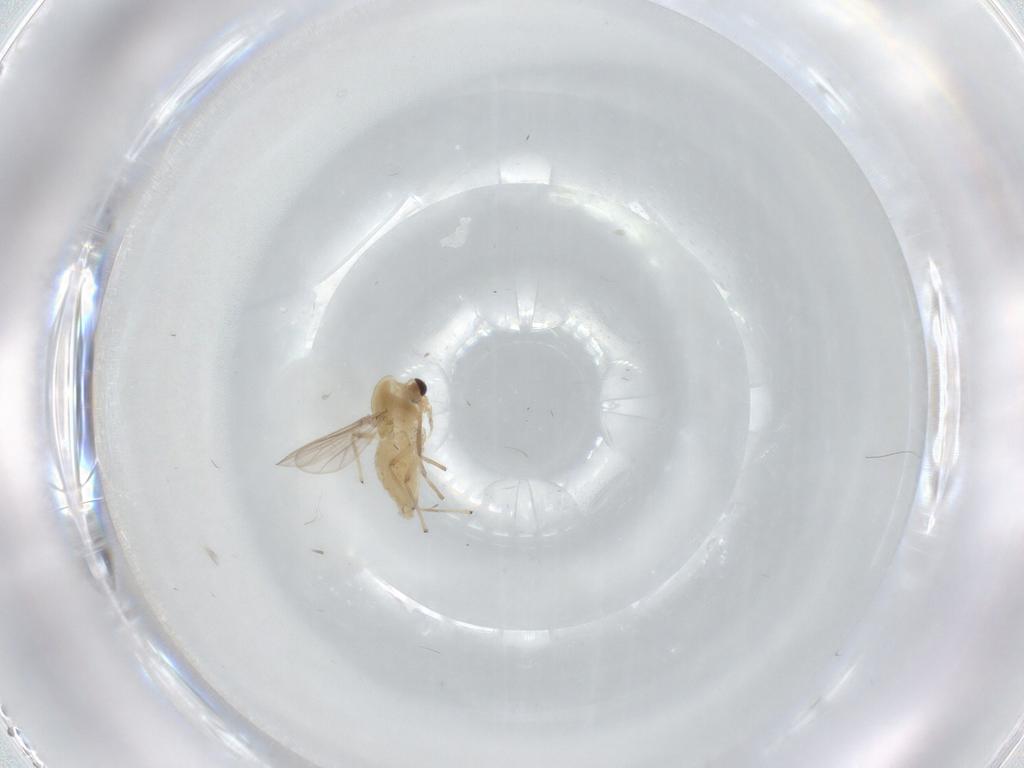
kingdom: Animalia
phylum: Arthropoda
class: Insecta
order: Diptera
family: Chironomidae
